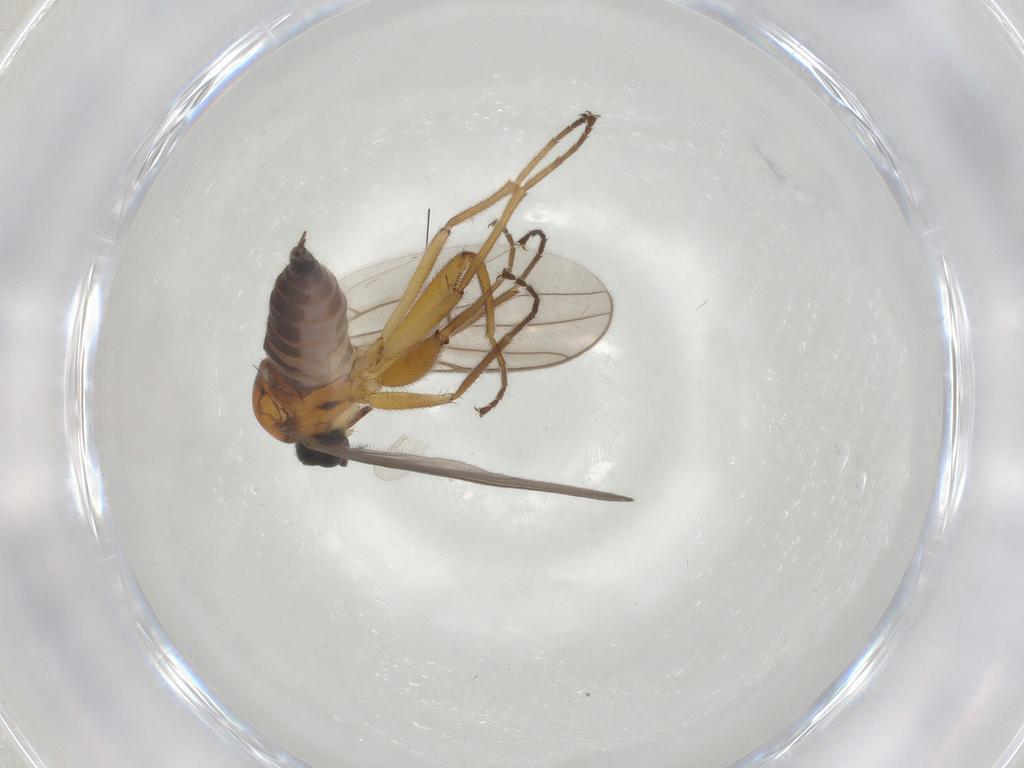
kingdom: Animalia
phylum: Arthropoda
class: Insecta
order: Diptera
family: Hybotidae
